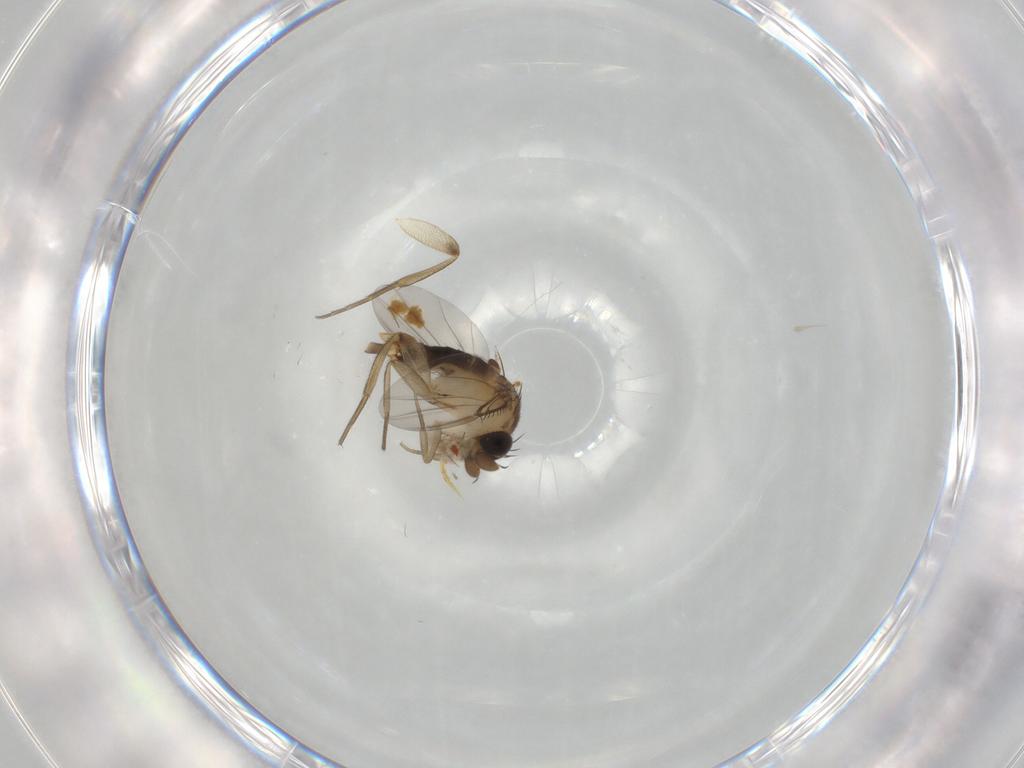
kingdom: Animalia
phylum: Arthropoda
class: Insecta
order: Diptera
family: Phoridae
